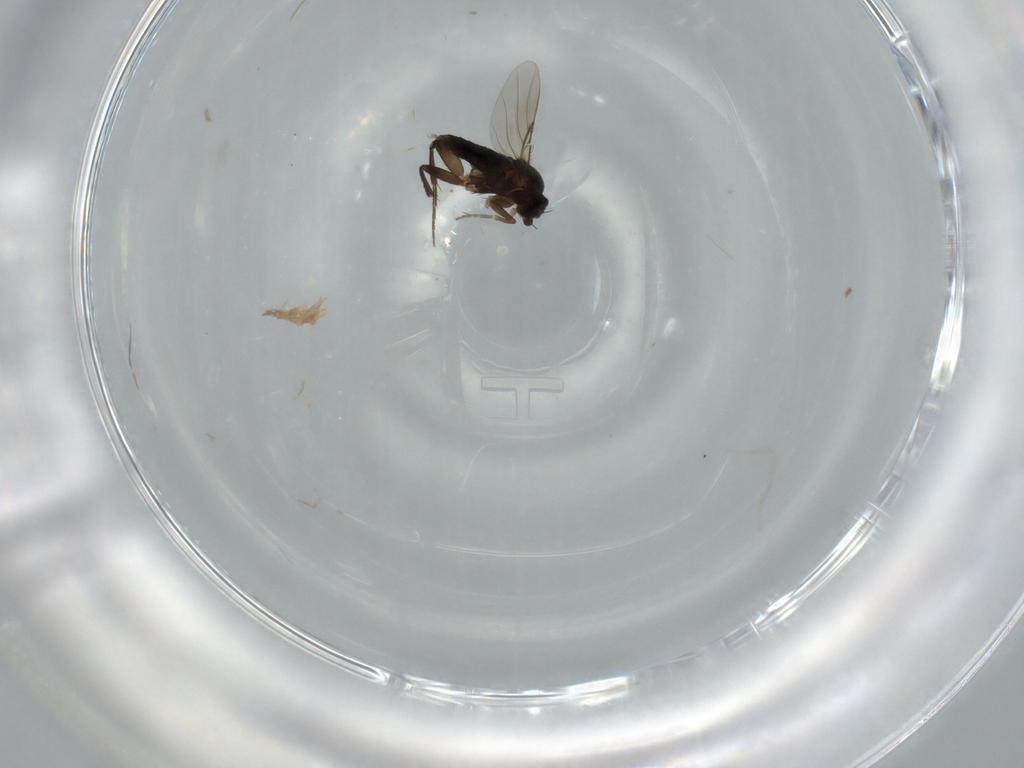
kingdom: Animalia
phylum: Arthropoda
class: Insecta
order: Diptera
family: Phoridae
